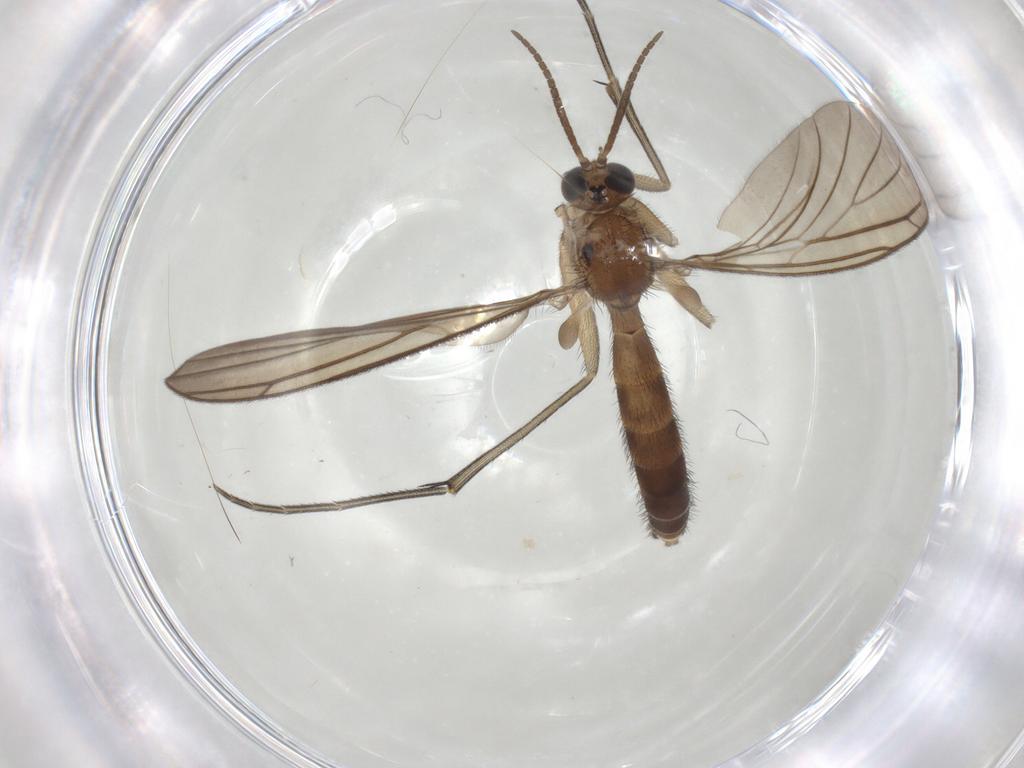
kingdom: Animalia
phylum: Arthropoda
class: Insecta
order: Diptera
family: Keroplatidae
